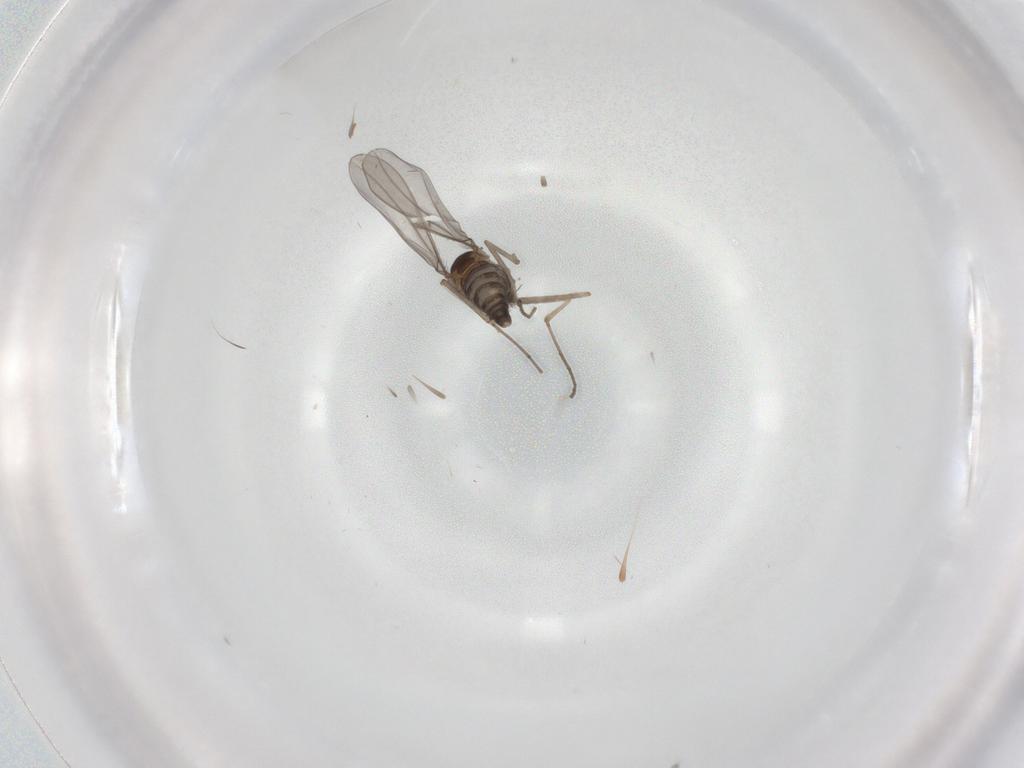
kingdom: Animalia
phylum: Arthropoda
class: Insecta
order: Diptera
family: Cecidomyiidae
